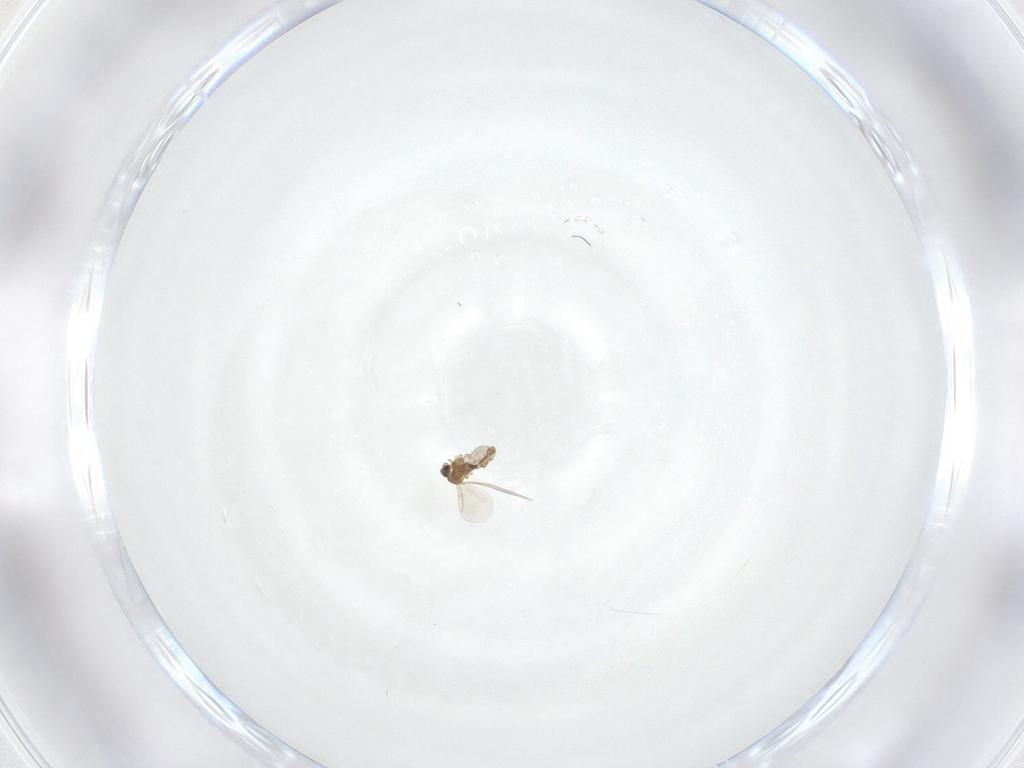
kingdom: Animalia
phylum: Arthropoda
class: Insecta
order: Diptera
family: Cecidomyiidae
